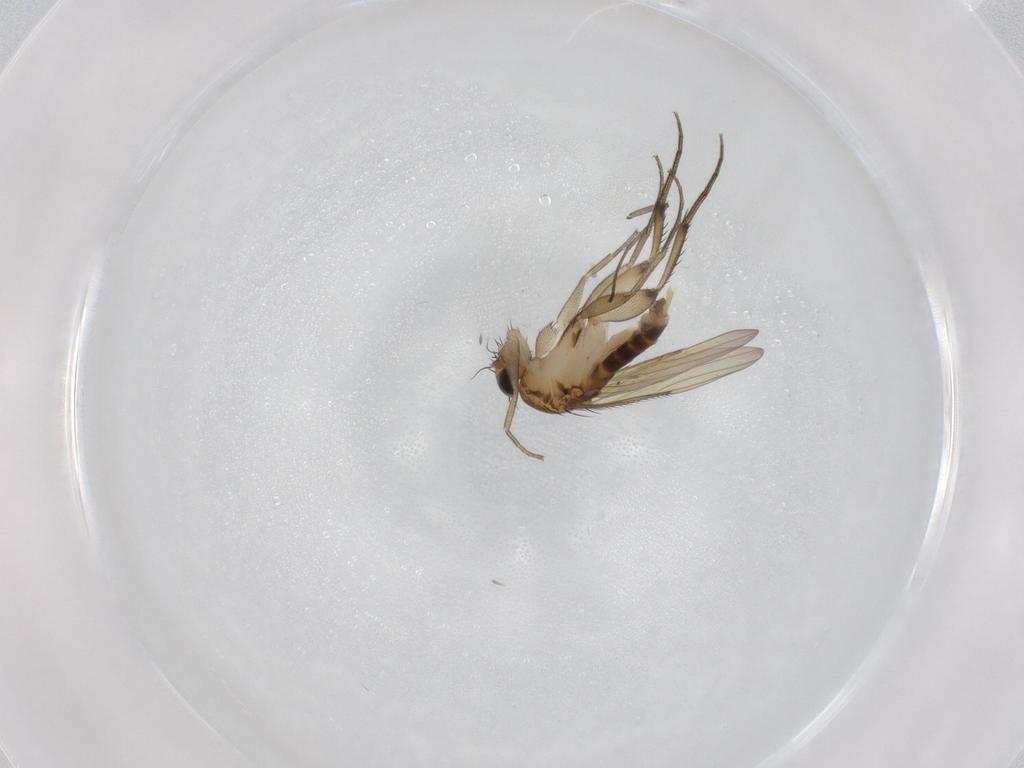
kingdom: Animalia
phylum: Arthropoda
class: Insecta
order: Diptera
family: Phoridae
